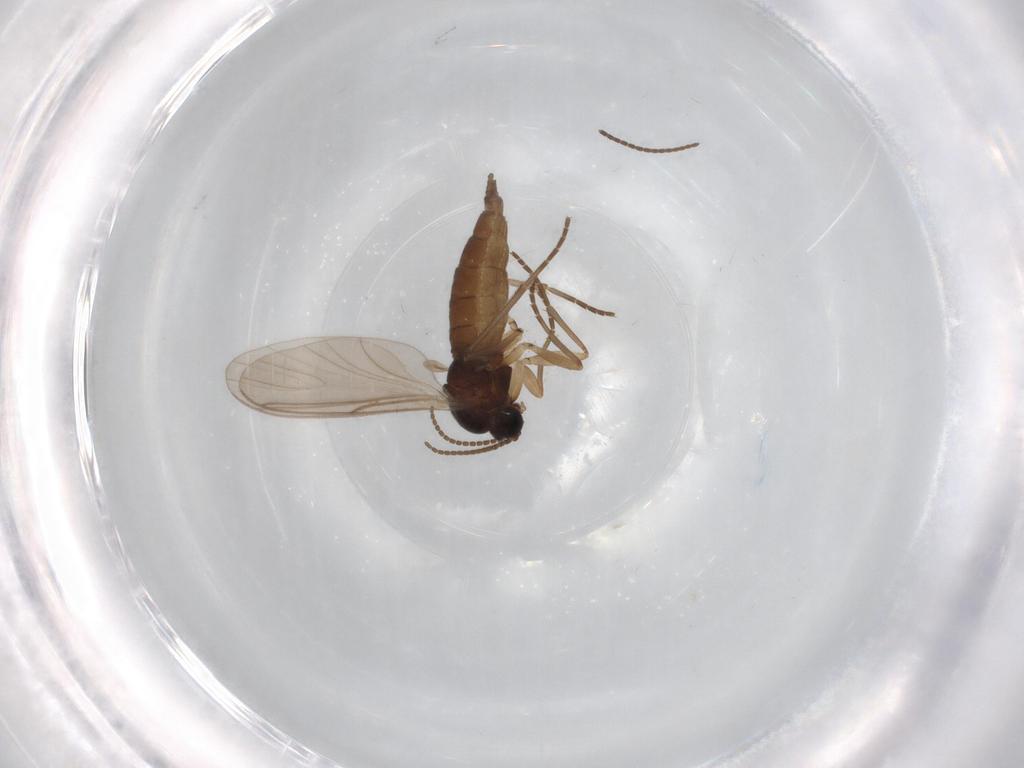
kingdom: Animalia
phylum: Arthropoda
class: Insecta
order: Diptera
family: Sciaridae
